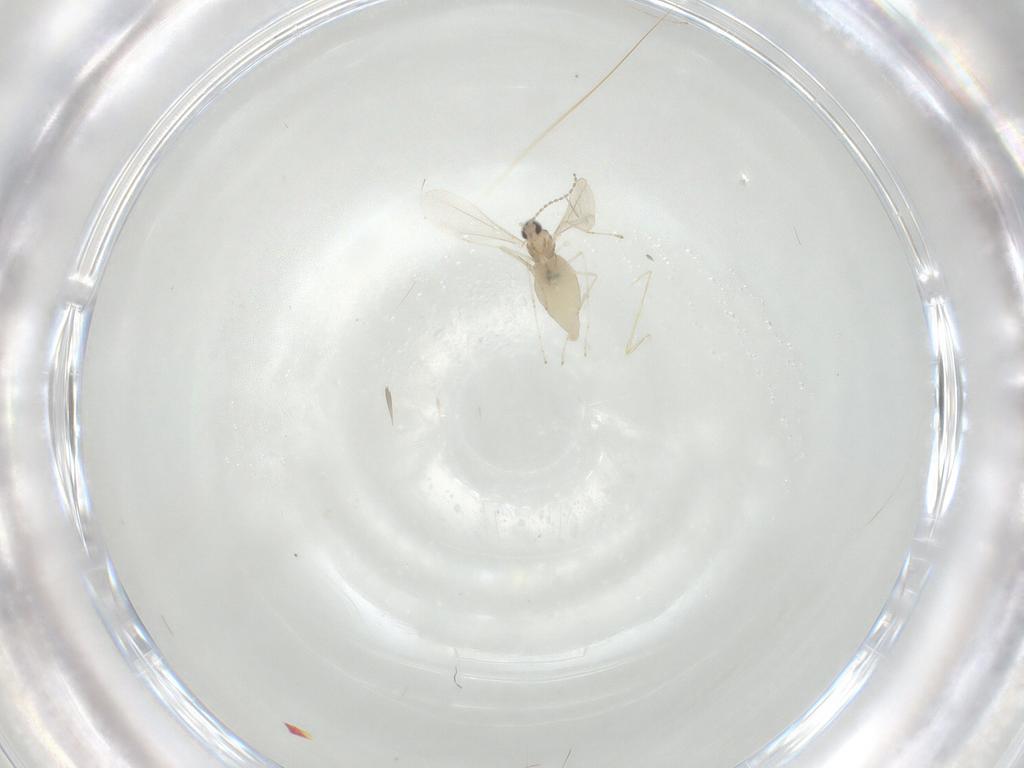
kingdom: Animalia
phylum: Arthropoda
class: Insecta
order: Diptera
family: Cecidomyiidae
